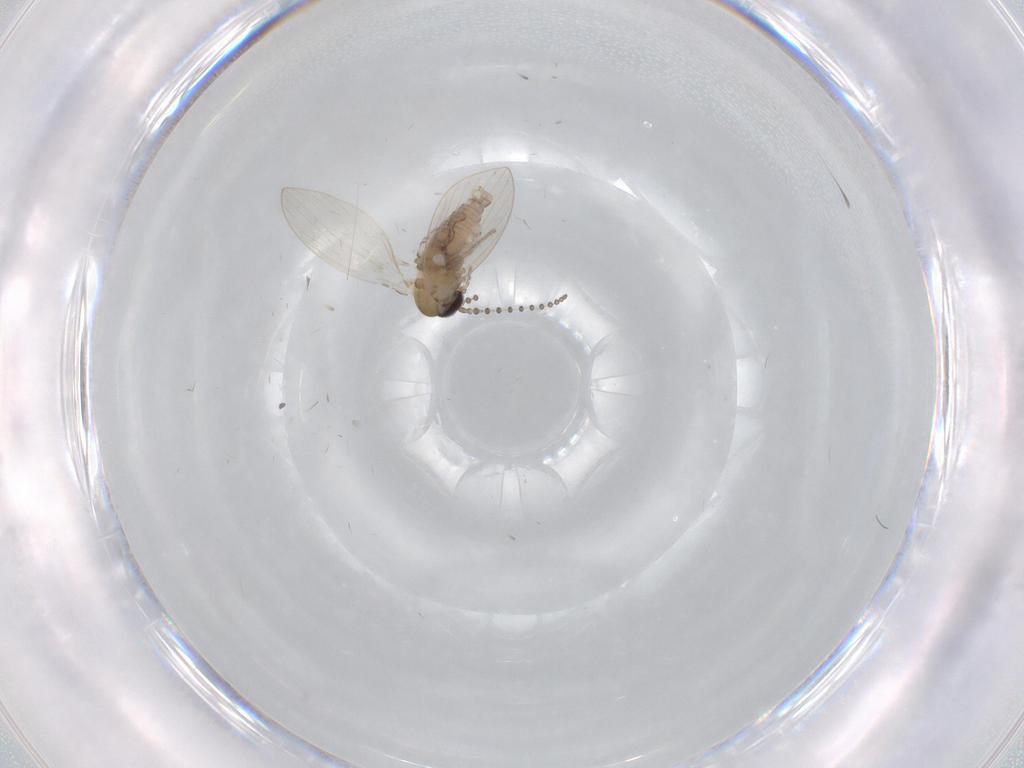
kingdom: Animalia
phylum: Arthropoda
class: Insecta
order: Diptera
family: Psychodidae
